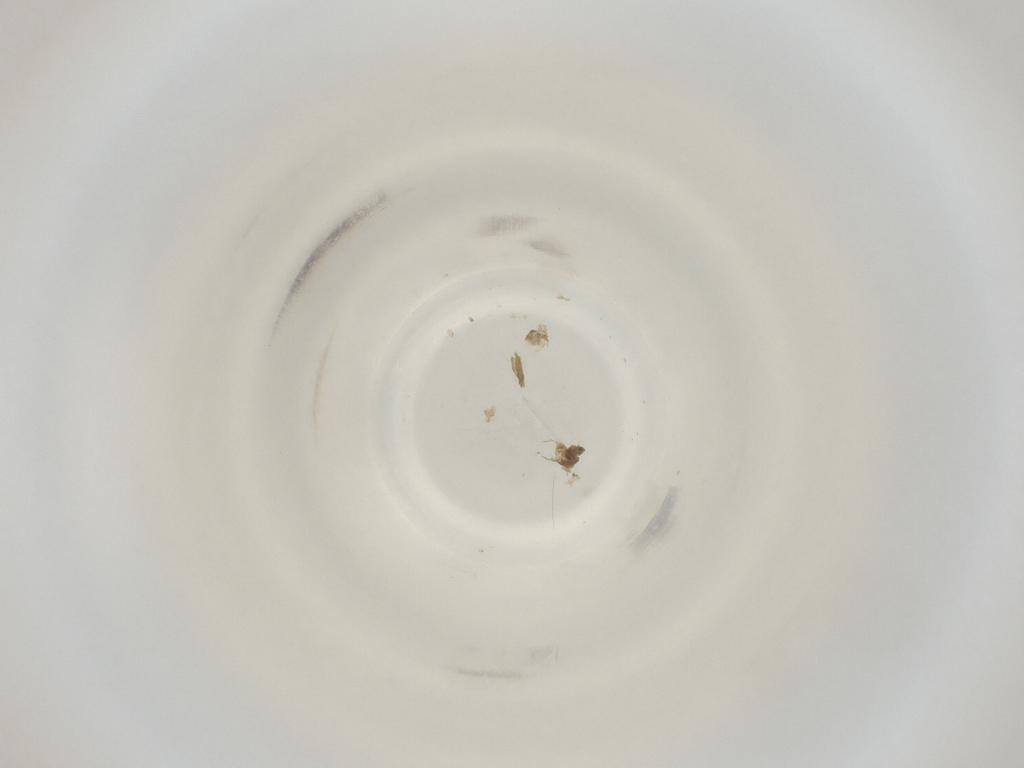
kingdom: Animalia
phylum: Arthropoda
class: Insecta
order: Diptera
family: Cecidomyiidae
